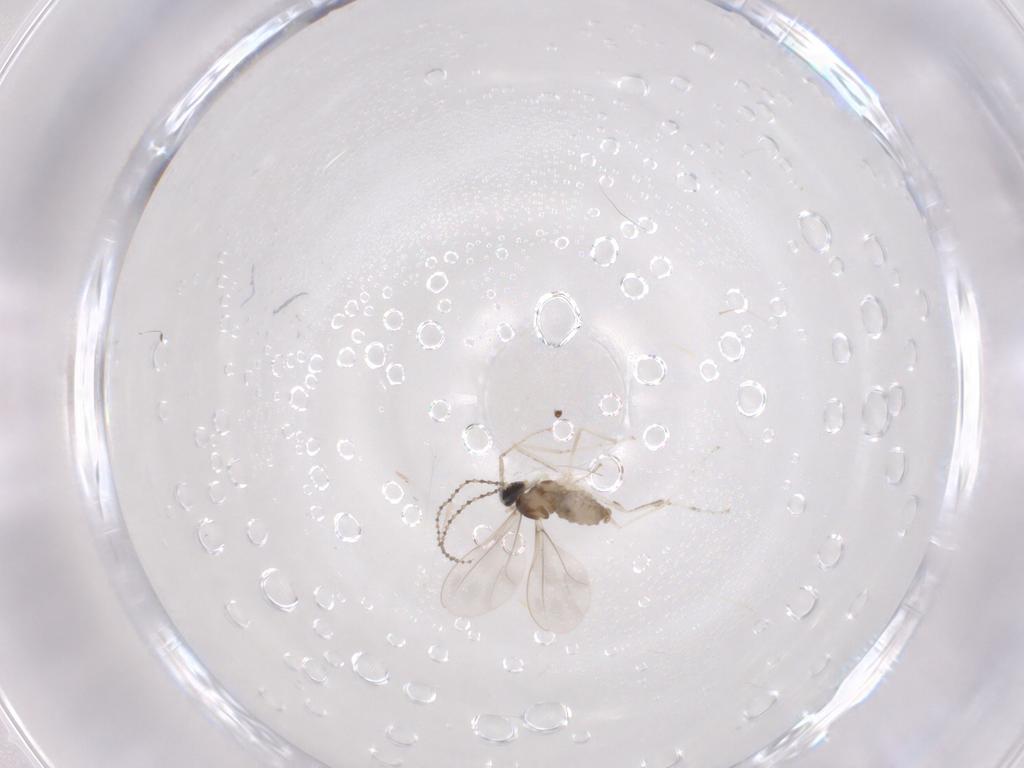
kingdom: Animalia
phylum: Arthropoda
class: Insecta
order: Diptera
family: Cecidomyiidae
